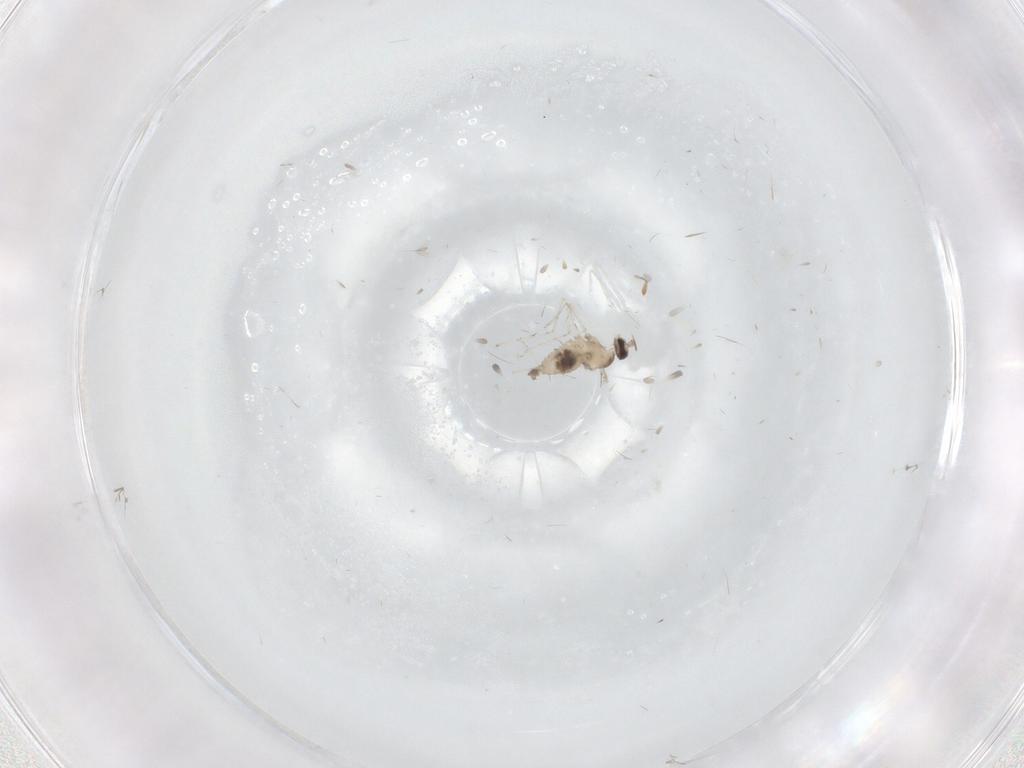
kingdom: Animalia
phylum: Arthropoda
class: Insecta
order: Diptera
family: Cecidomyiidae
